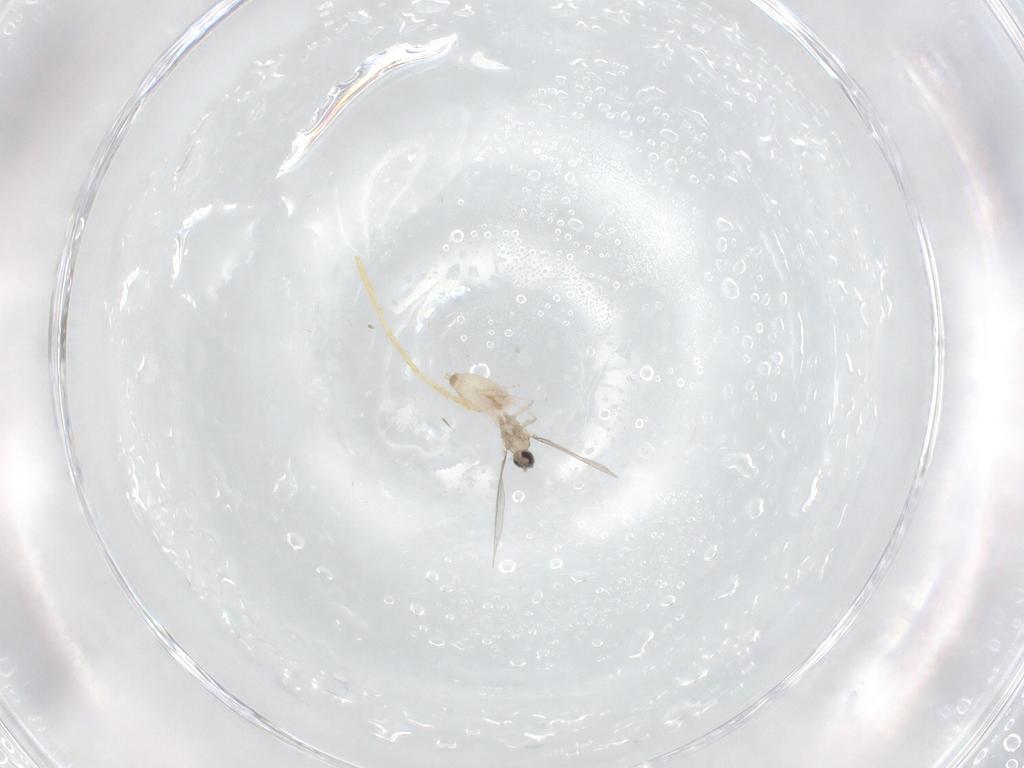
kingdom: Animalia
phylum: Arthropoda
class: Insecta
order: Diptera
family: Cecidomyiidae
